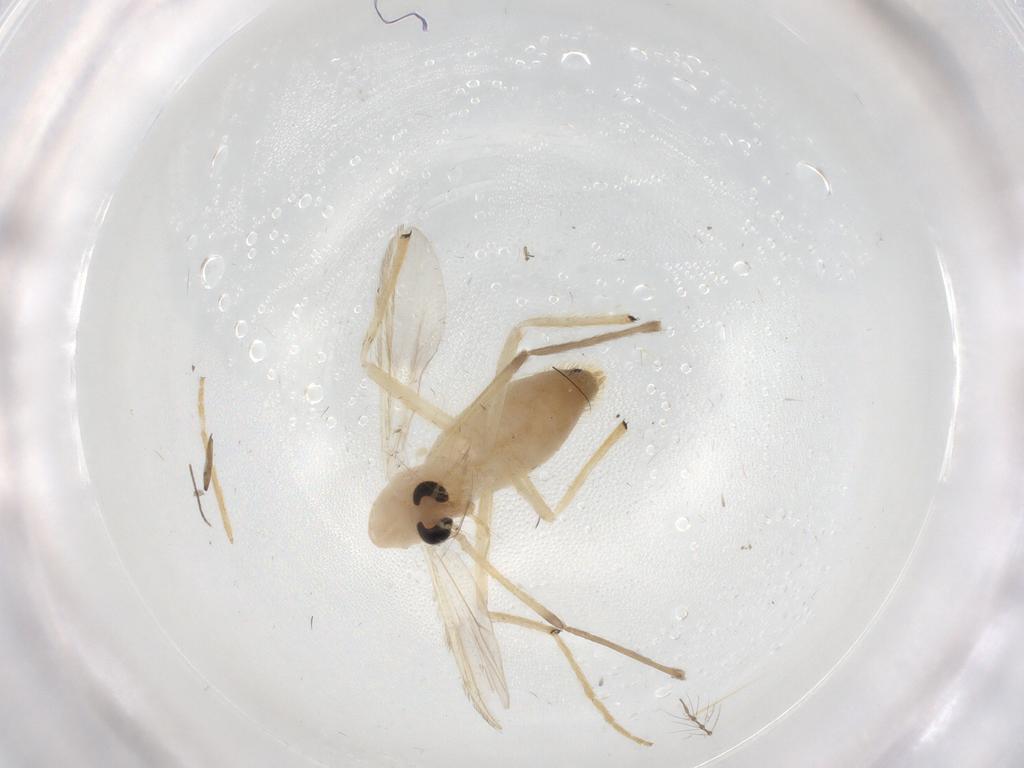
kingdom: Animalia
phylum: Arthropoda
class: Insecta
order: Diptera
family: Chironomidae
